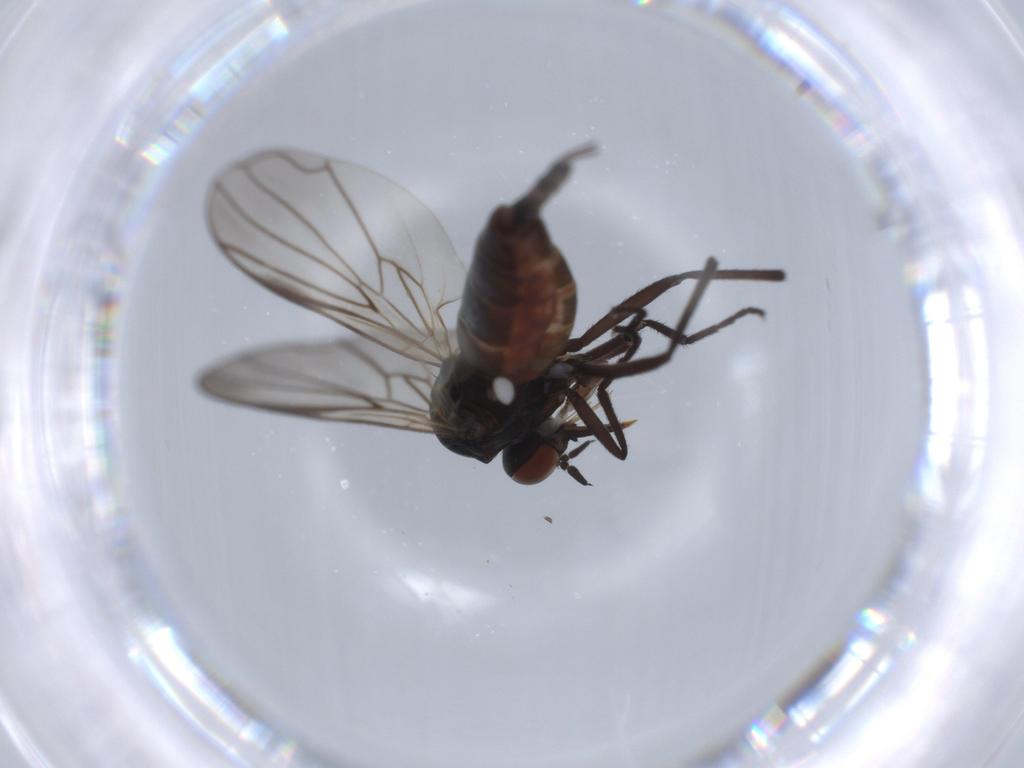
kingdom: Animalia
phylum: Arthropoda
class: Insecta
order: Diptera
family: Empididae
